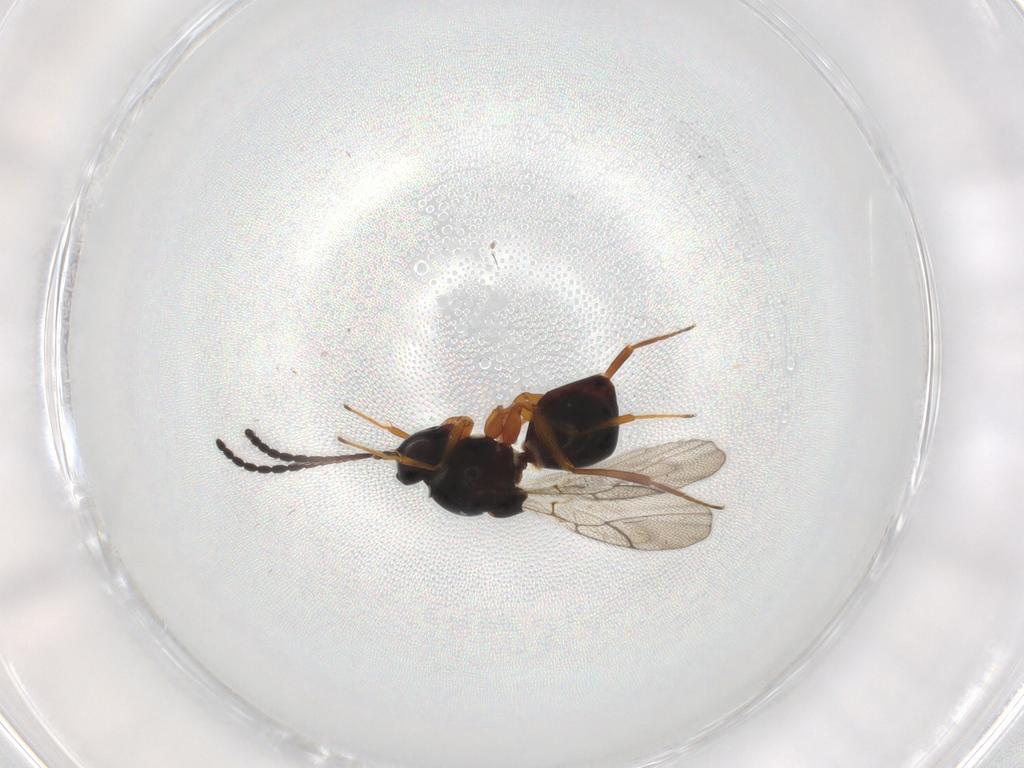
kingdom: Animalia
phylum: Arthropoda
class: Insecta
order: Hymenoptera
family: Figitidae
